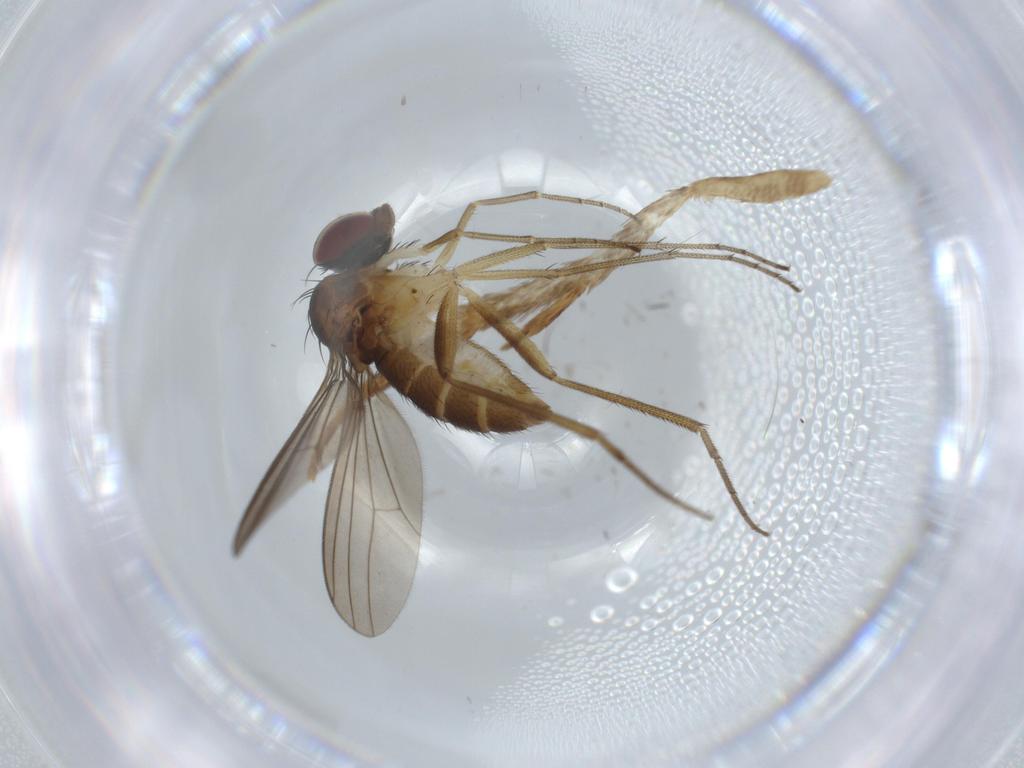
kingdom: Animalia
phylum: Arthropoda
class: Insecta
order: Diptera
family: Dolichopodidae
